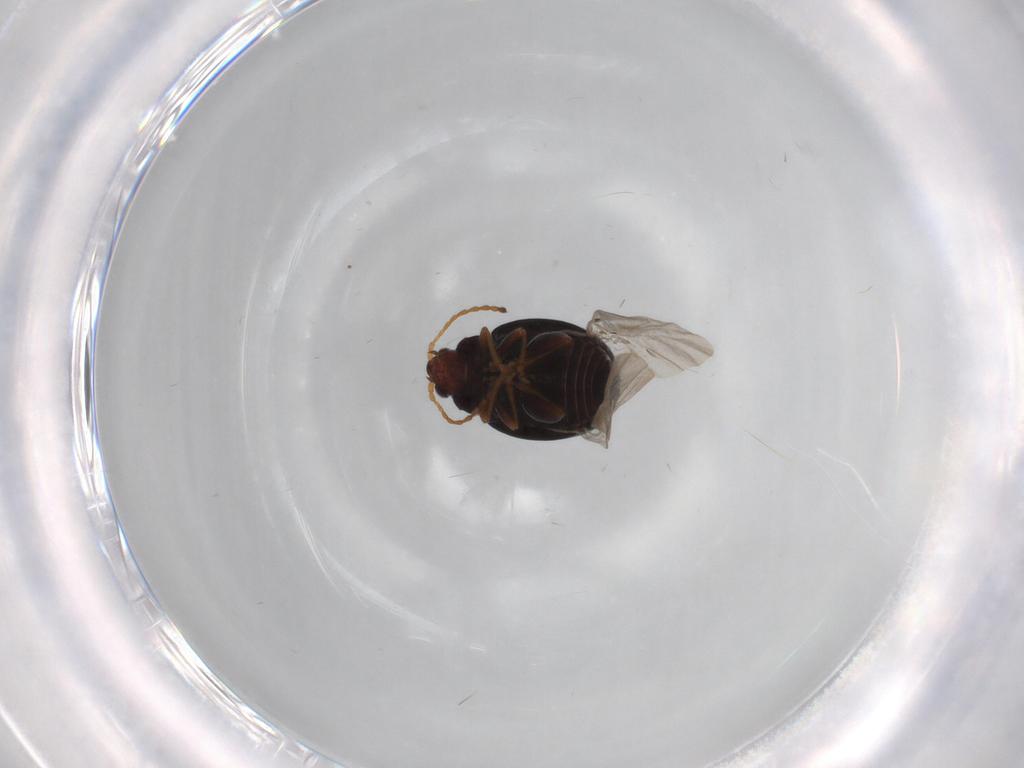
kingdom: Animalia
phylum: Arthropoda
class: Insecta
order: Coleoptera
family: Ptilodactylidae
